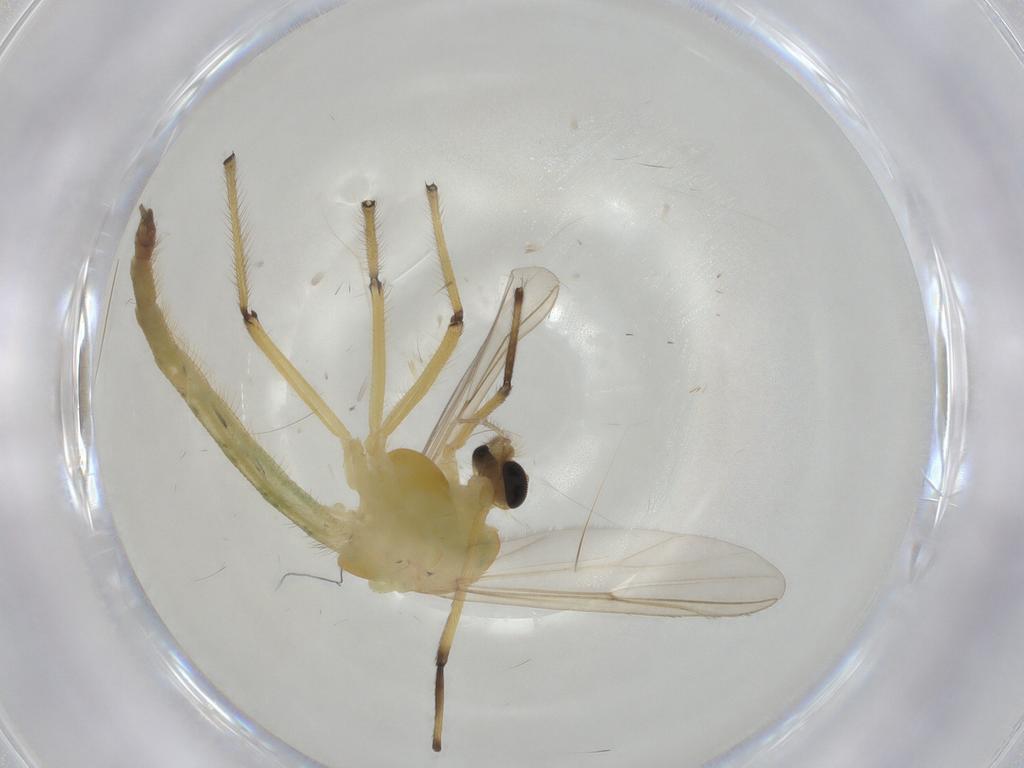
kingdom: Animalia
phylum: Arthropoda
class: Insecta
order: Diptera
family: Chironomidae
